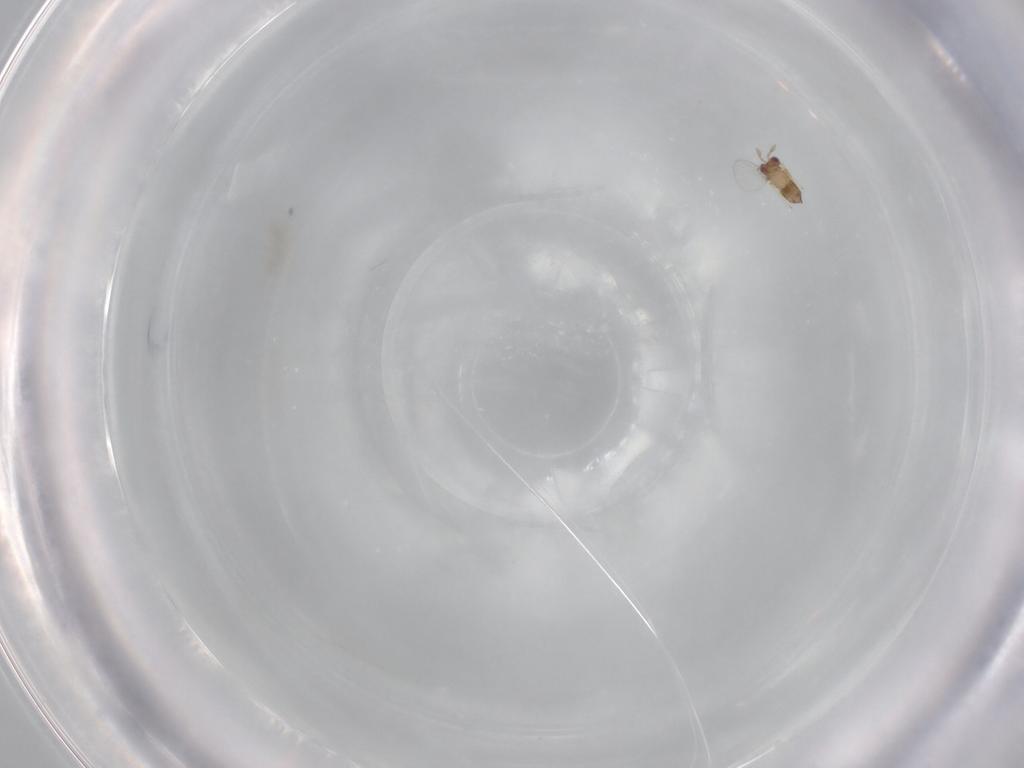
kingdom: Animalia
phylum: Arthropoda
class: Insecta
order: Hymenoptera
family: Trichogrammatidae
